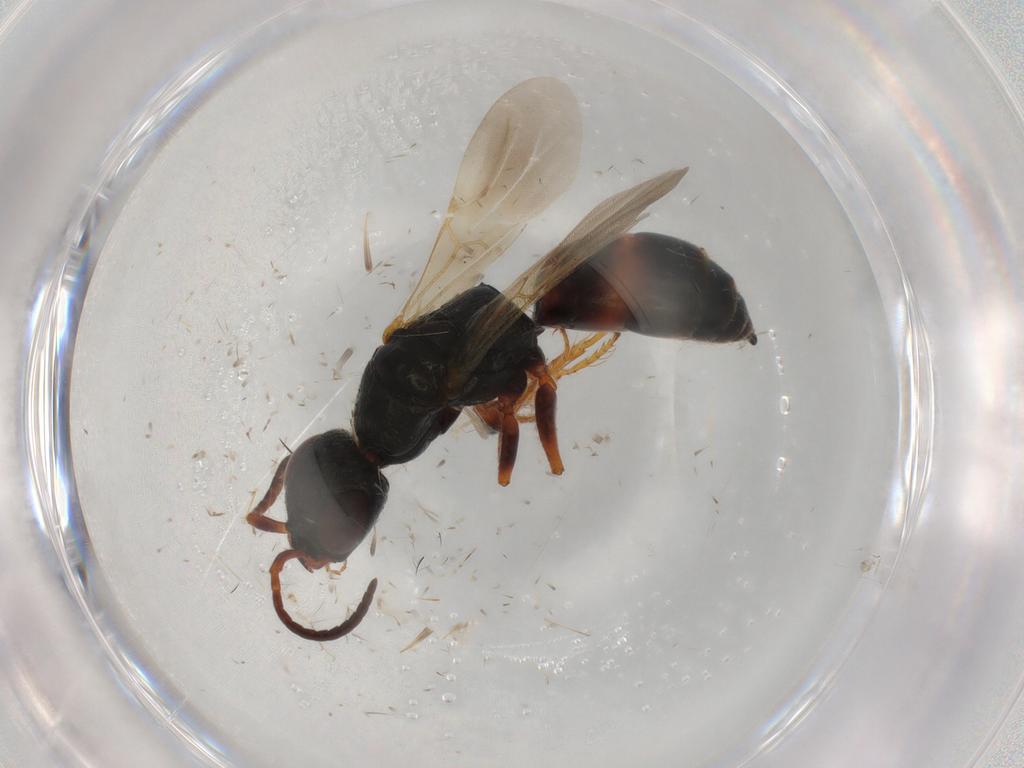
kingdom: Animalia
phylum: Arthropoda
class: Insecta
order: Hymenoptera
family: Bethylidae
